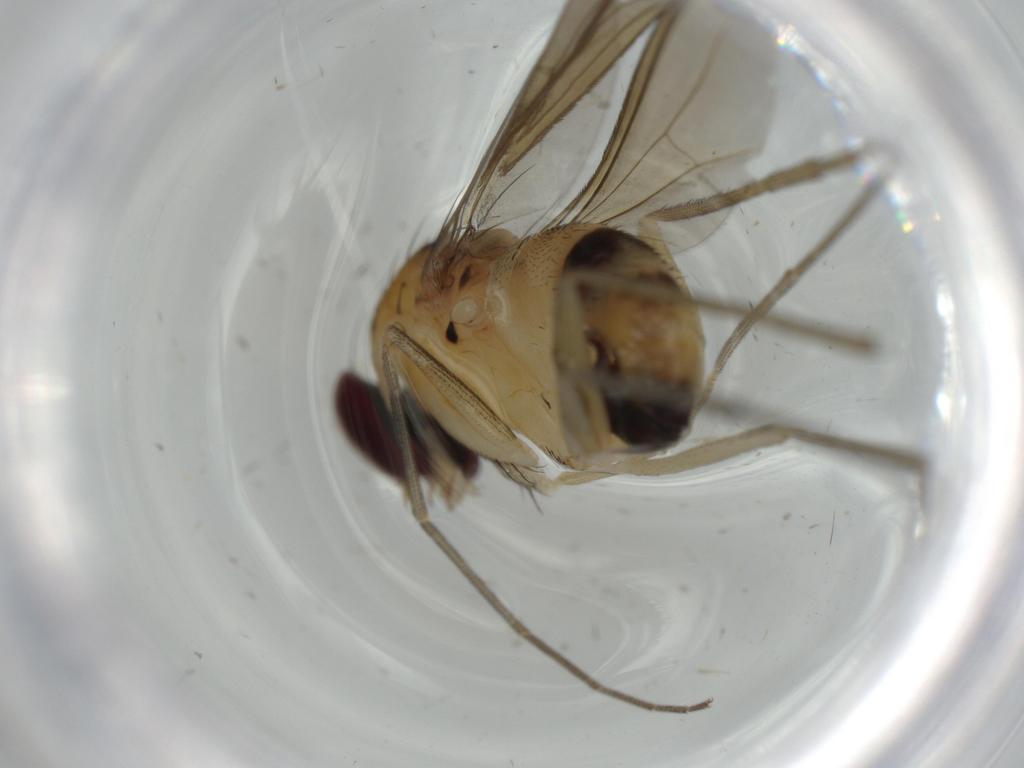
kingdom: Animalia
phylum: Arthropoda
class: Insecta
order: Diptera
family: Dolichopodidae
